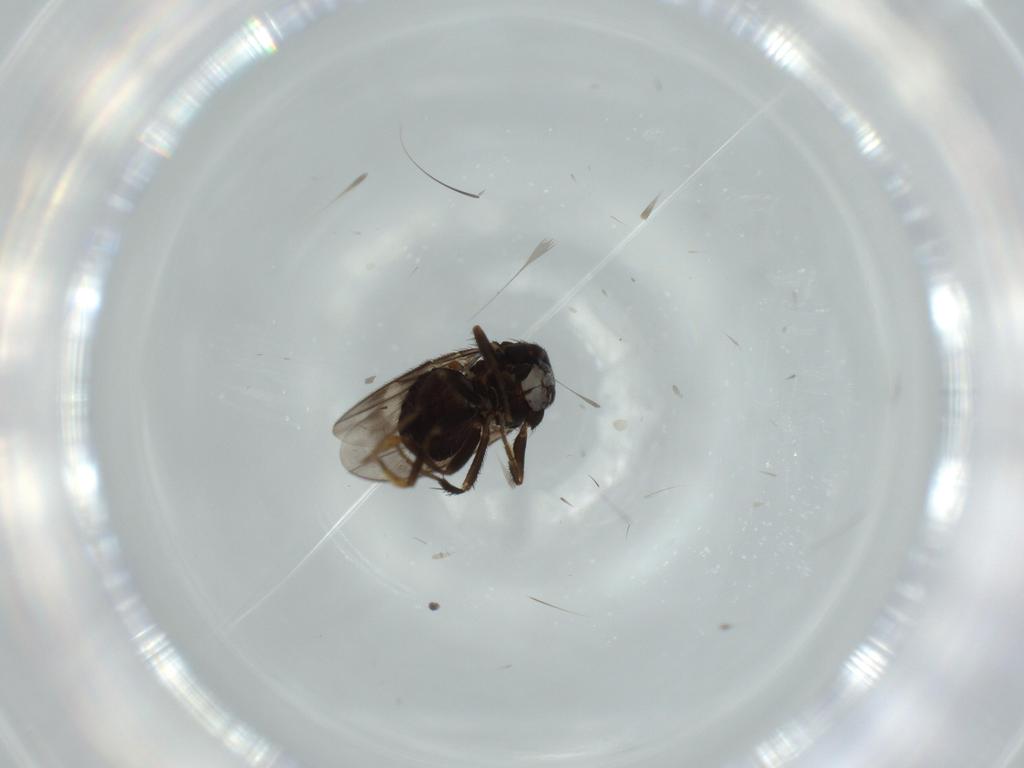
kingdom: Animalia
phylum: Arthropoda
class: Insecta
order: Diptera
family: Sphaeroceridae
